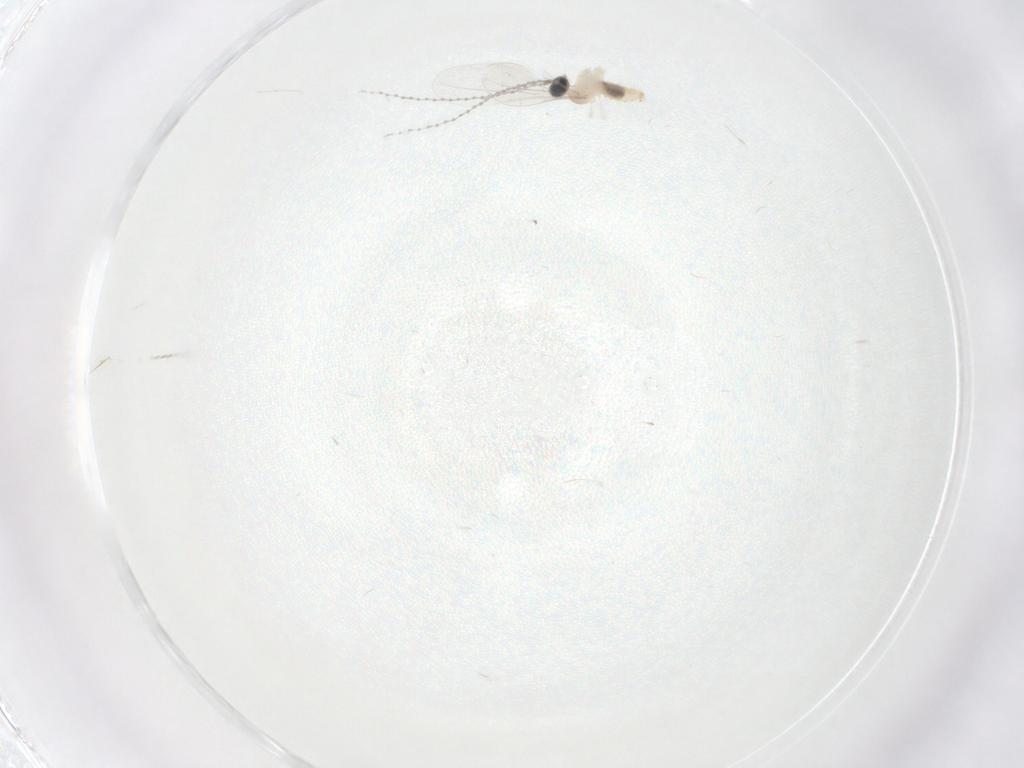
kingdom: Animalia
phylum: Arthropoda
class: Insecta
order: Diptera
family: Cecidomyiidae
